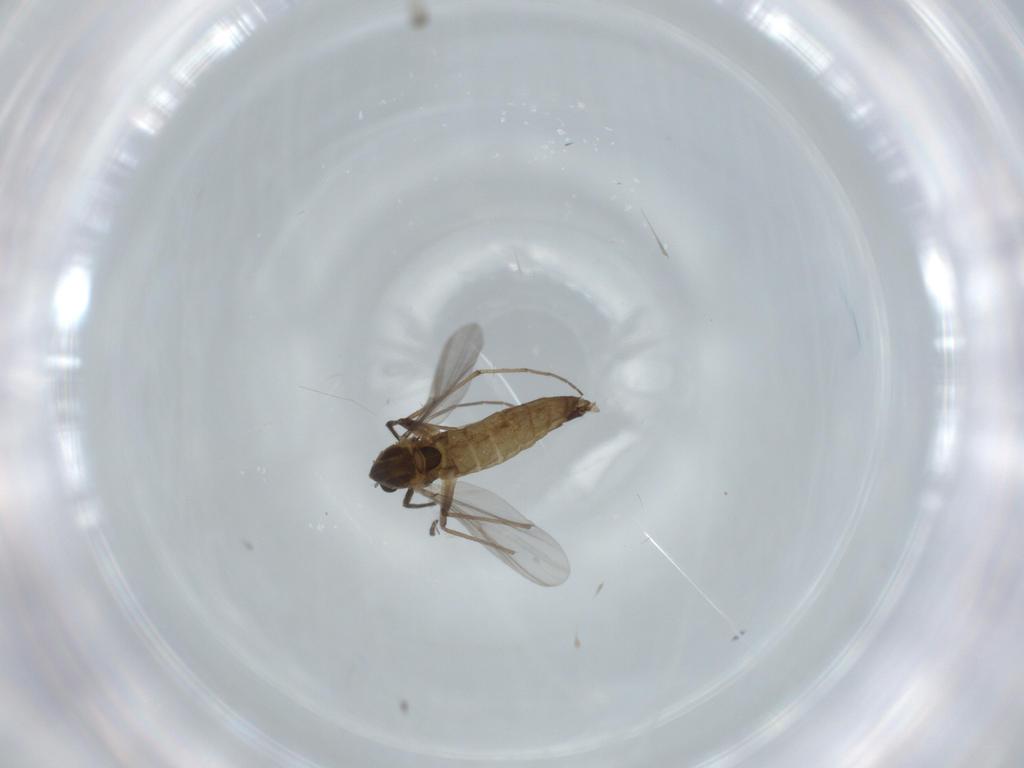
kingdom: Animalia
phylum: Arthropoda
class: Insecta
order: Diptera
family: Chironomidae
